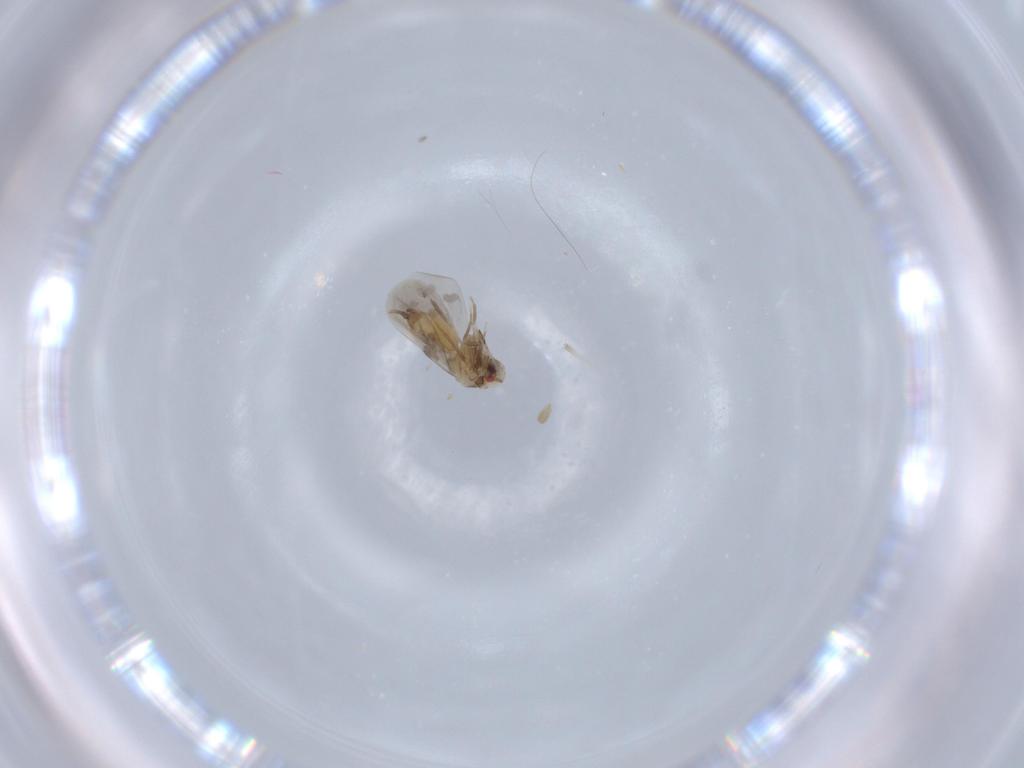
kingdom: Animalia
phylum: Arthropoda
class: Insecta
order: Hemiptera
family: Aleyrodidae
